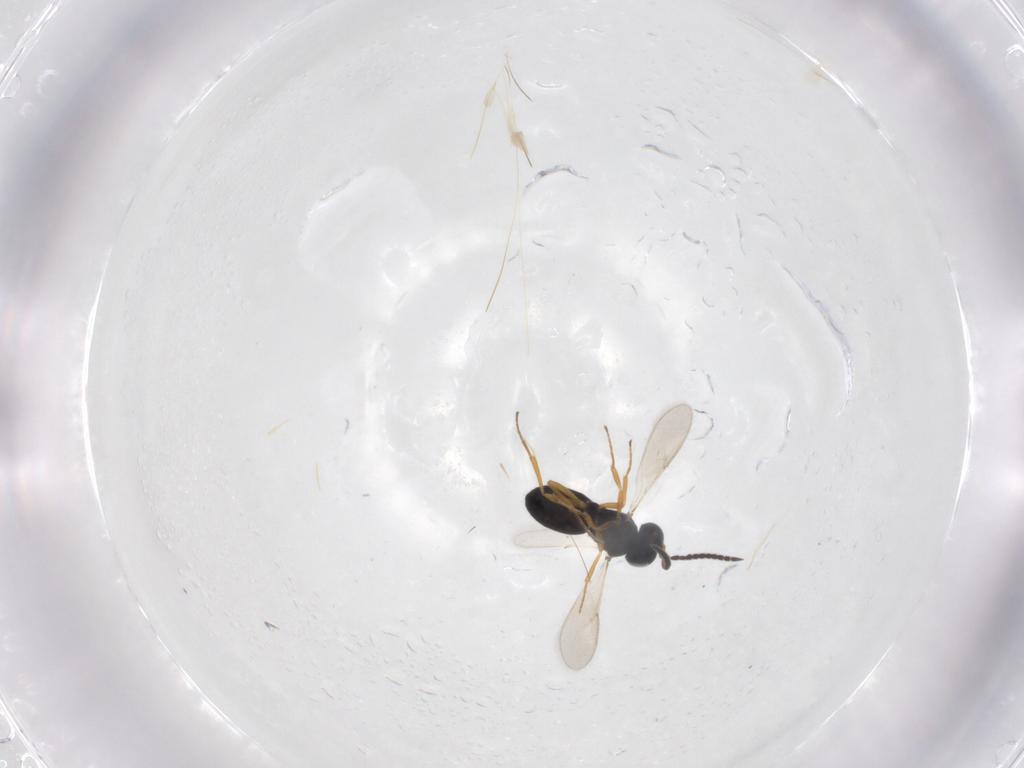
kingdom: Animalia
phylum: Arthropoda
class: Insecta
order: Hymenoptera
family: Scelionidae
